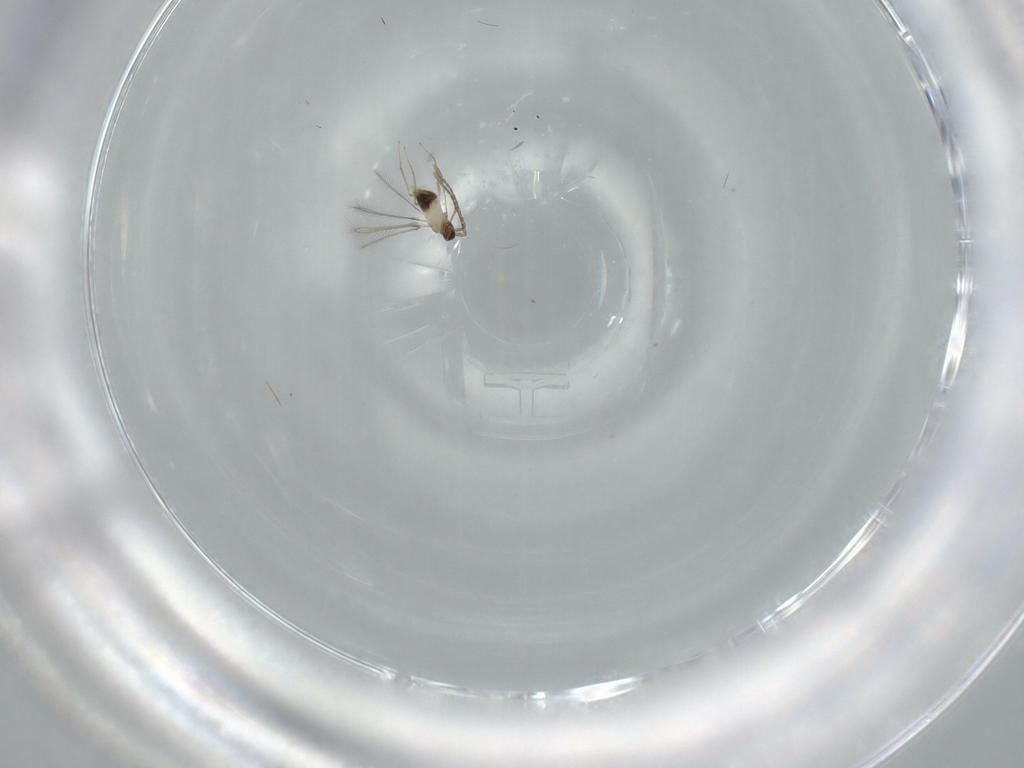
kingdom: Animalia
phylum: Arthropoda
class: Insecta
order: Hymenoptera
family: Mymaridae
